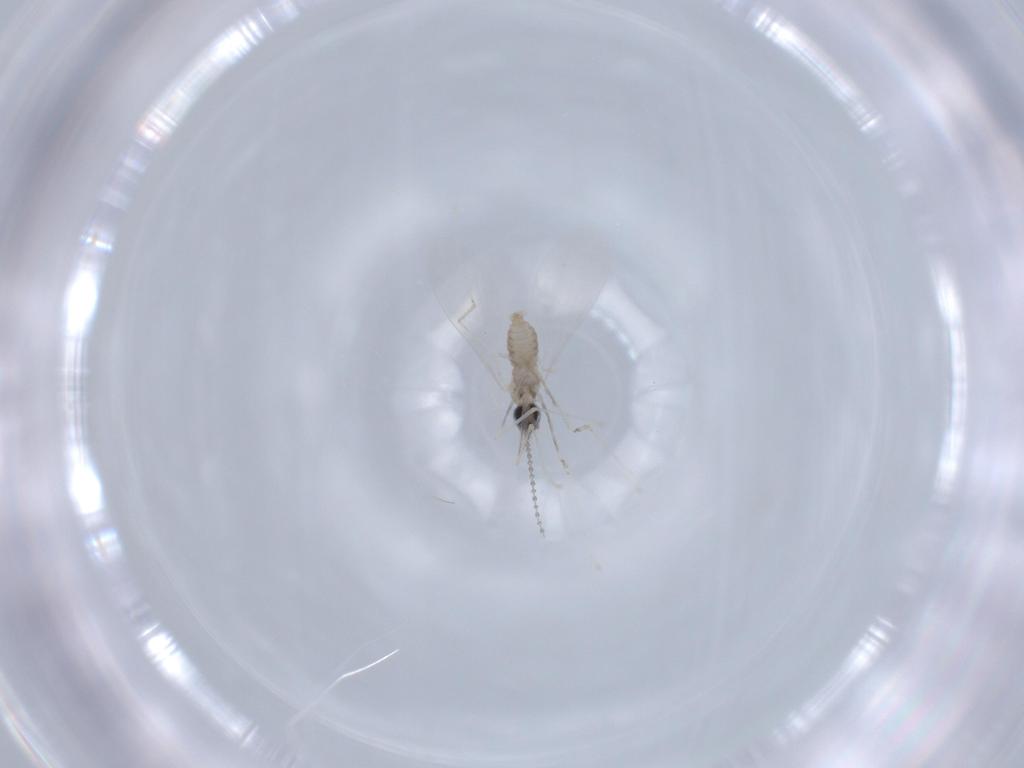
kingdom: Animalia
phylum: Arthropoda
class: Insecta
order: Diptera
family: Cecidomyiidae
